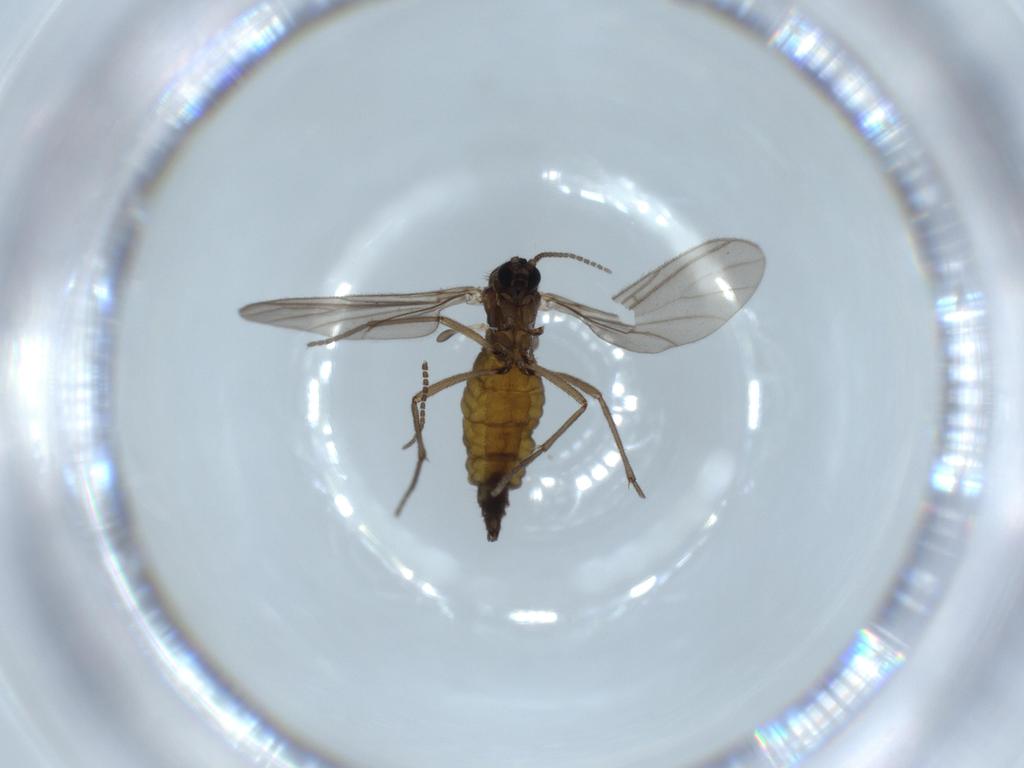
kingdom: Animalia
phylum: Arthropoda
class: Insecta
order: Diptera
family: Sciaridae
